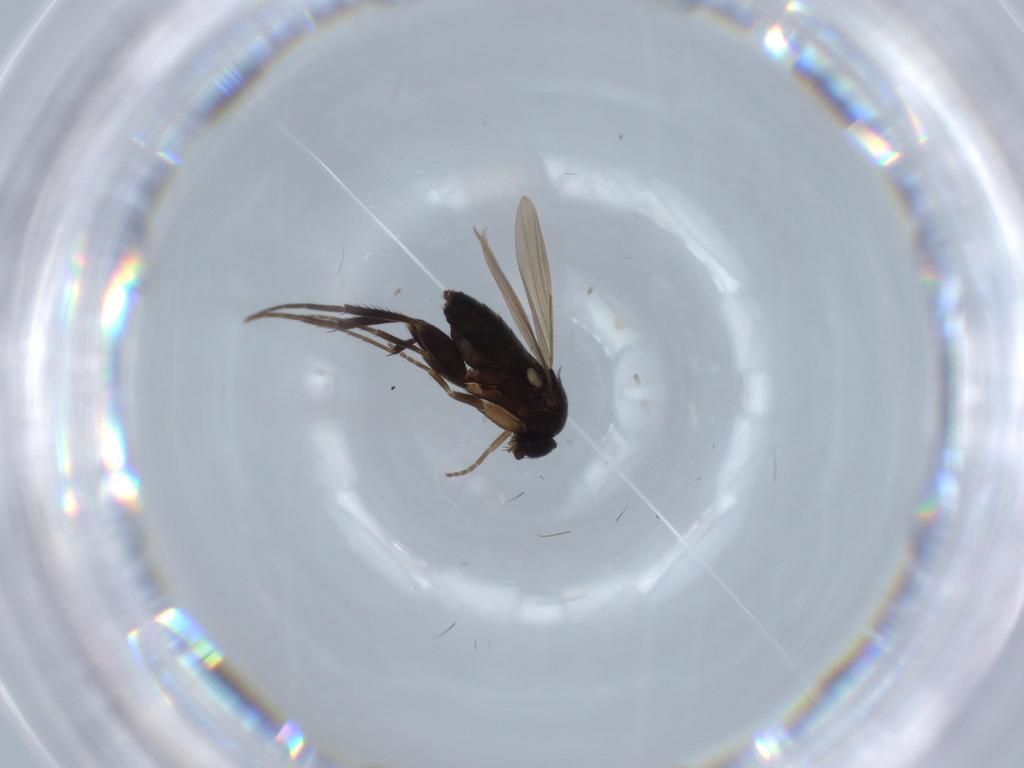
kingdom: Animalia
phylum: Arthropoda
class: Insecta
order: Diptera
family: Phoridae
